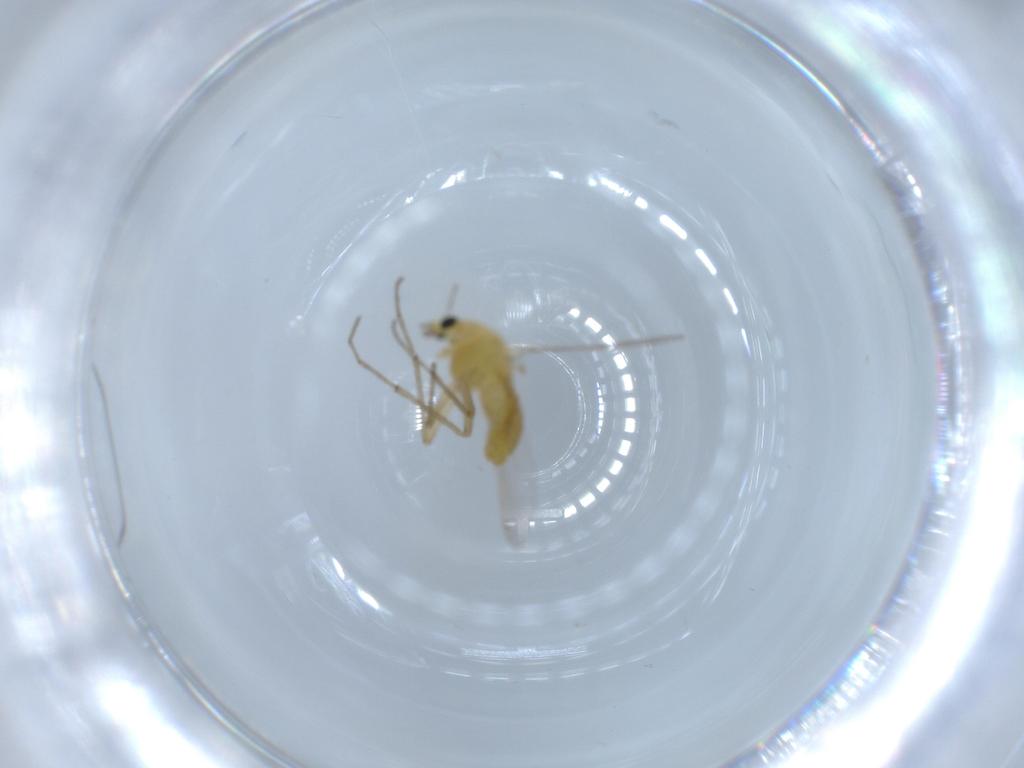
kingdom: Animalia
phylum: Arthropoda
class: Insecta
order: Diptera
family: Chironomidae
